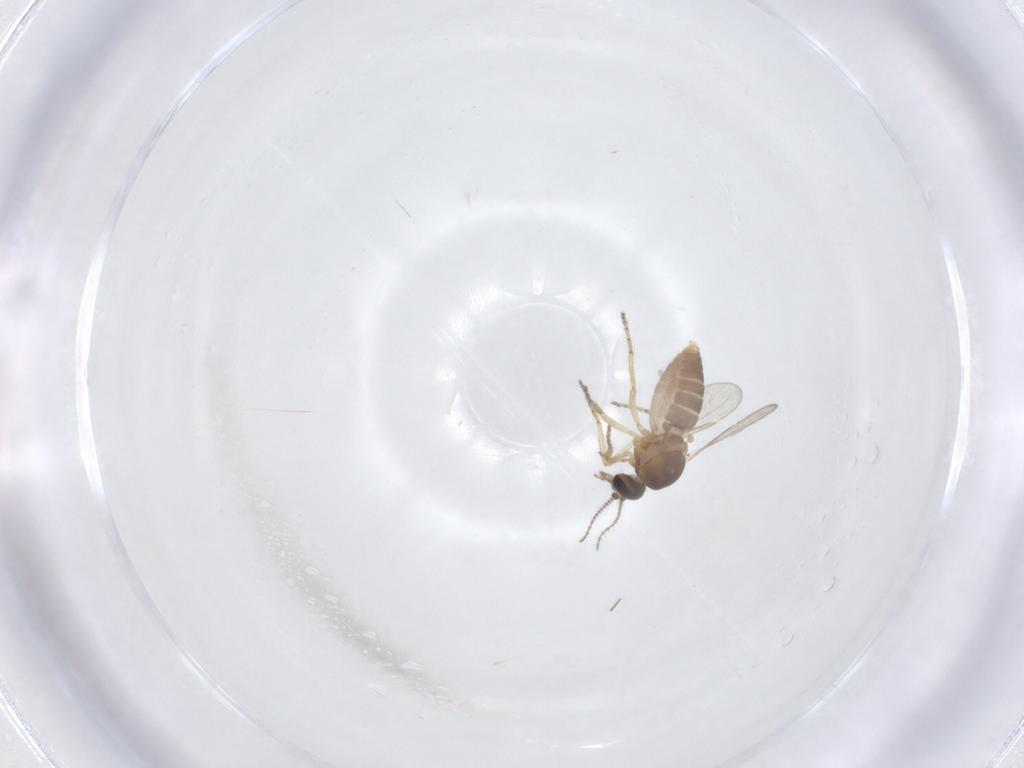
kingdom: Animalia
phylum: Arthropoda
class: Insecta
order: Diptera
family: Ceratopogonidae
